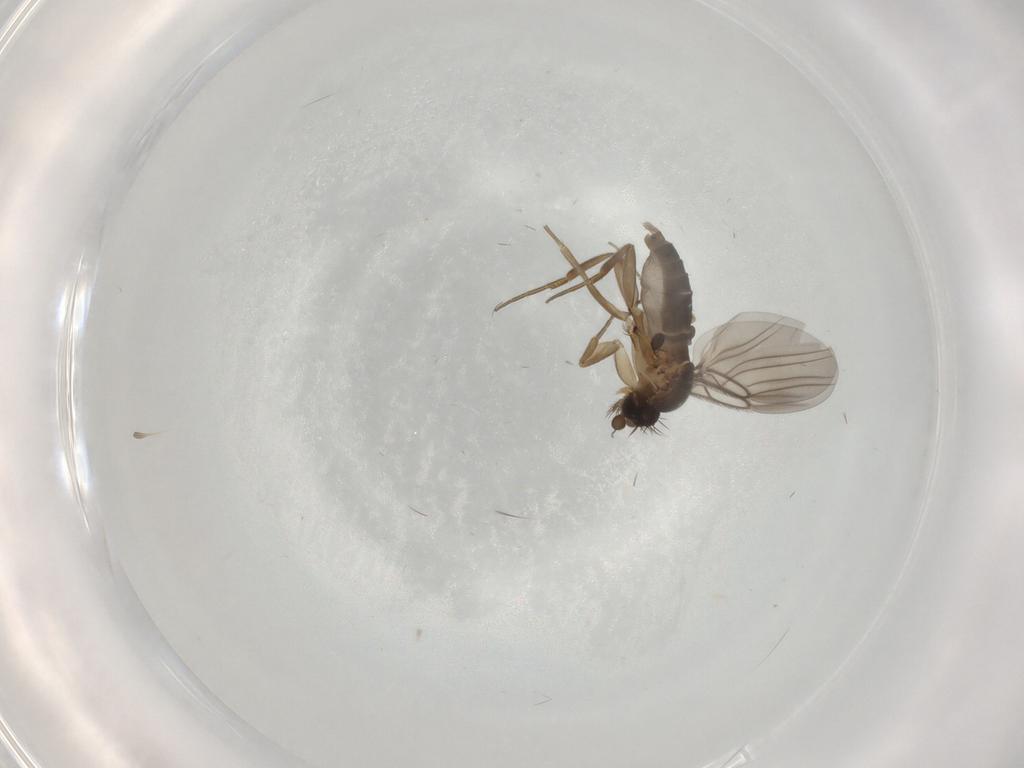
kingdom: Animalia
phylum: Arthropoda
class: Insecta
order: Diptera
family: Phoridae
